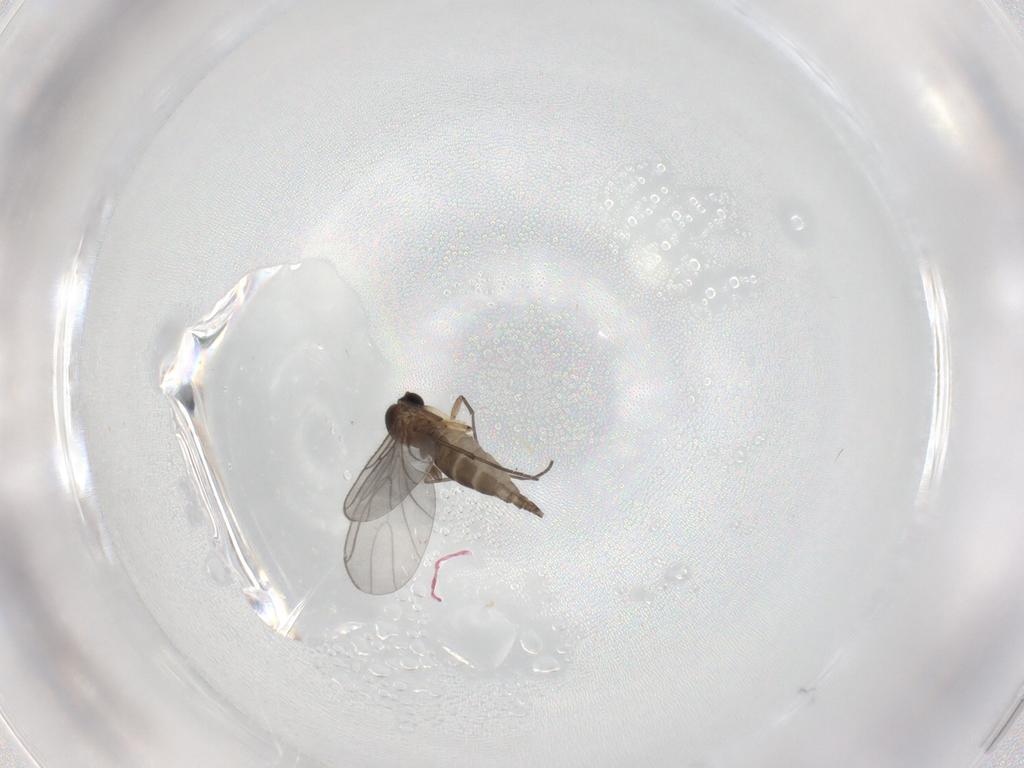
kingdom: Animalia
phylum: Arthropoda
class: Insecta
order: Diptera
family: Sciaridae
